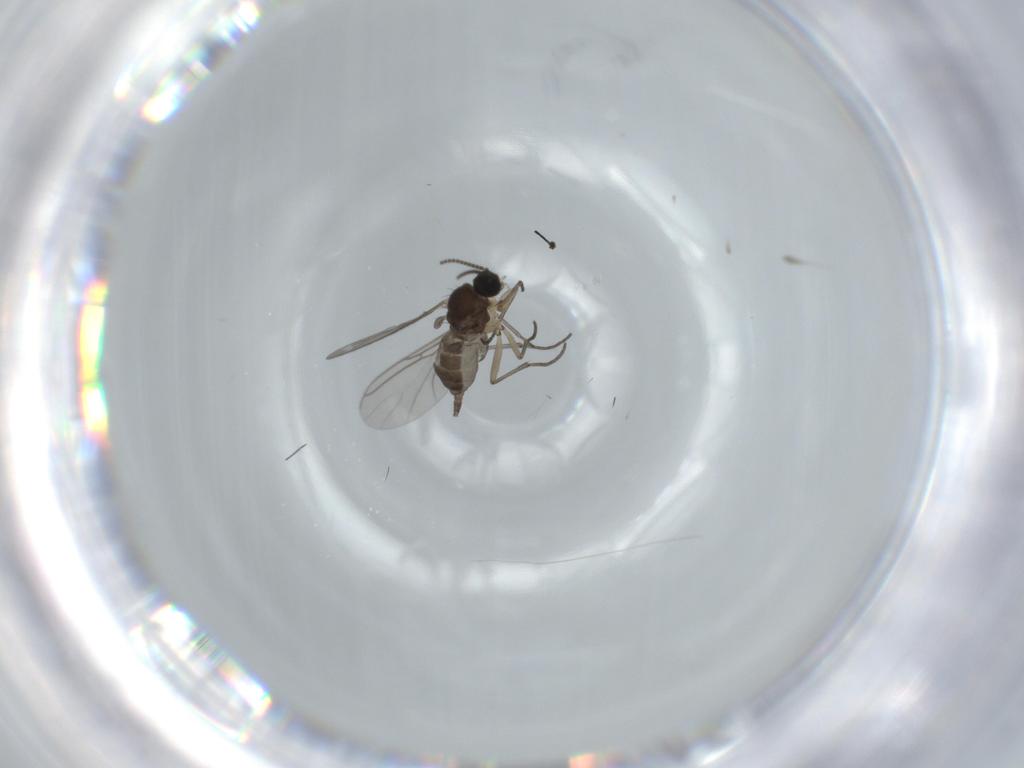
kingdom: Animalia
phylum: Arthropoda
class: Insecta
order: Diptera
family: Sciaridae
